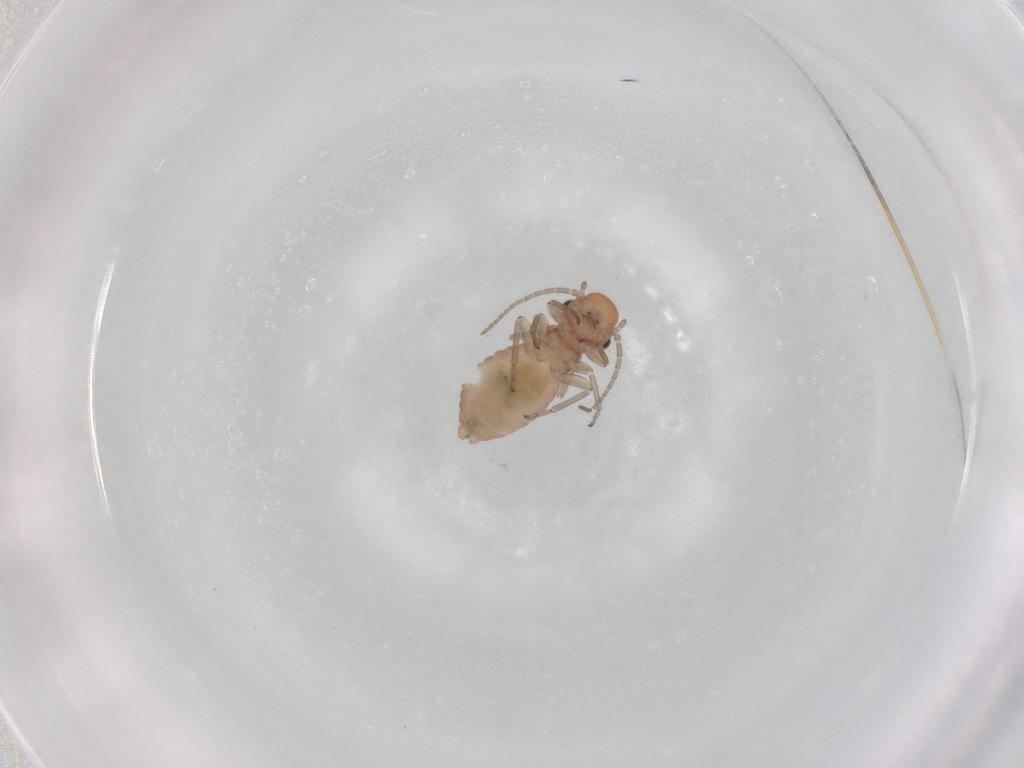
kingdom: Animalia
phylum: Arthropoda
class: Insecta
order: Psocodea
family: Caeciliusidae
